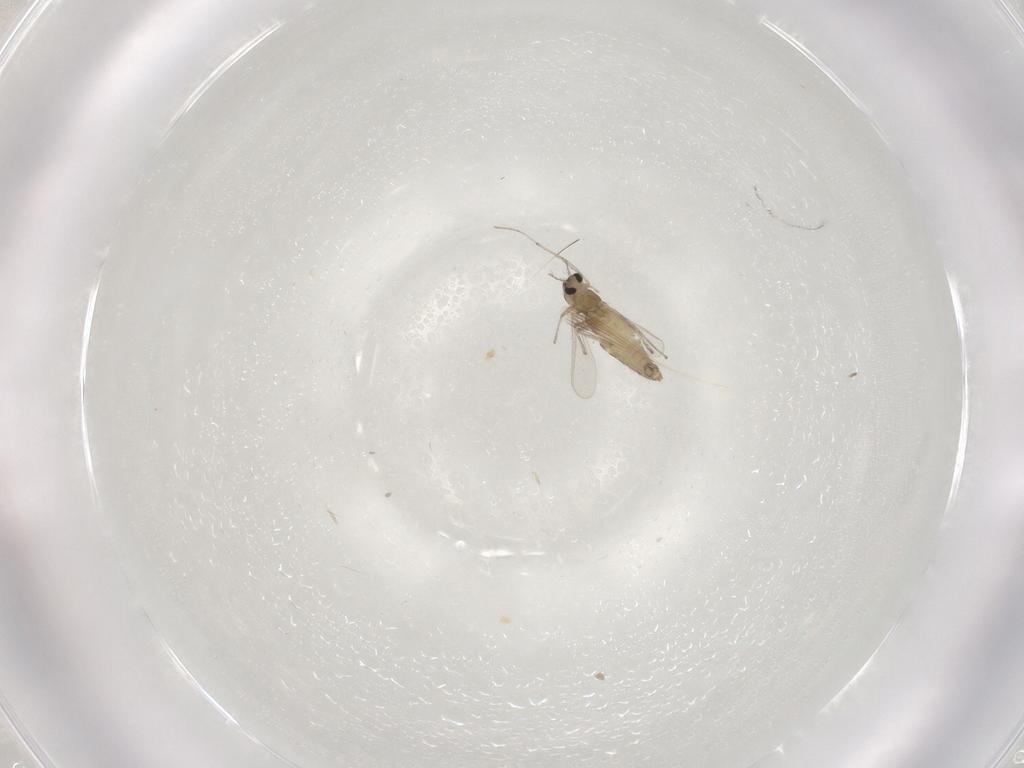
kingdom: Animalia
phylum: Arthropoda
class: Insecta
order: Diptera
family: Chironomidae
